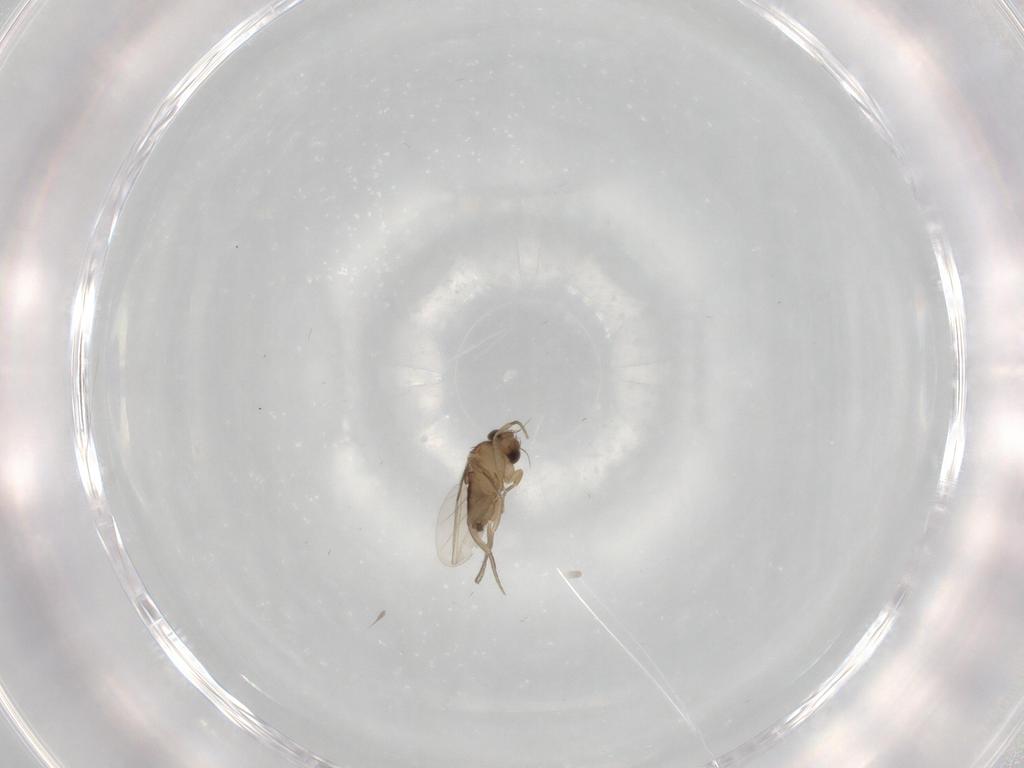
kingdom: Animalia
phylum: Arthropoda
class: Insecta
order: Diptera
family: Phoridae
